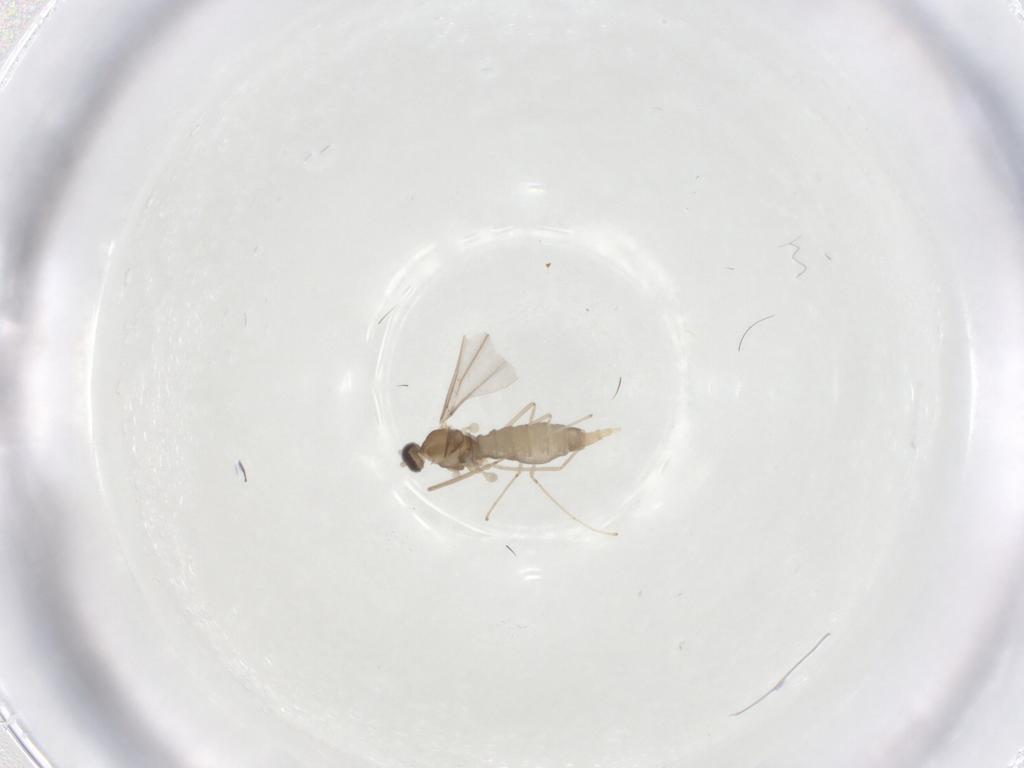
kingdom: Animalia
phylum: Arthropoda
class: Insecta
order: Diptera
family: Cecidomyiidae
